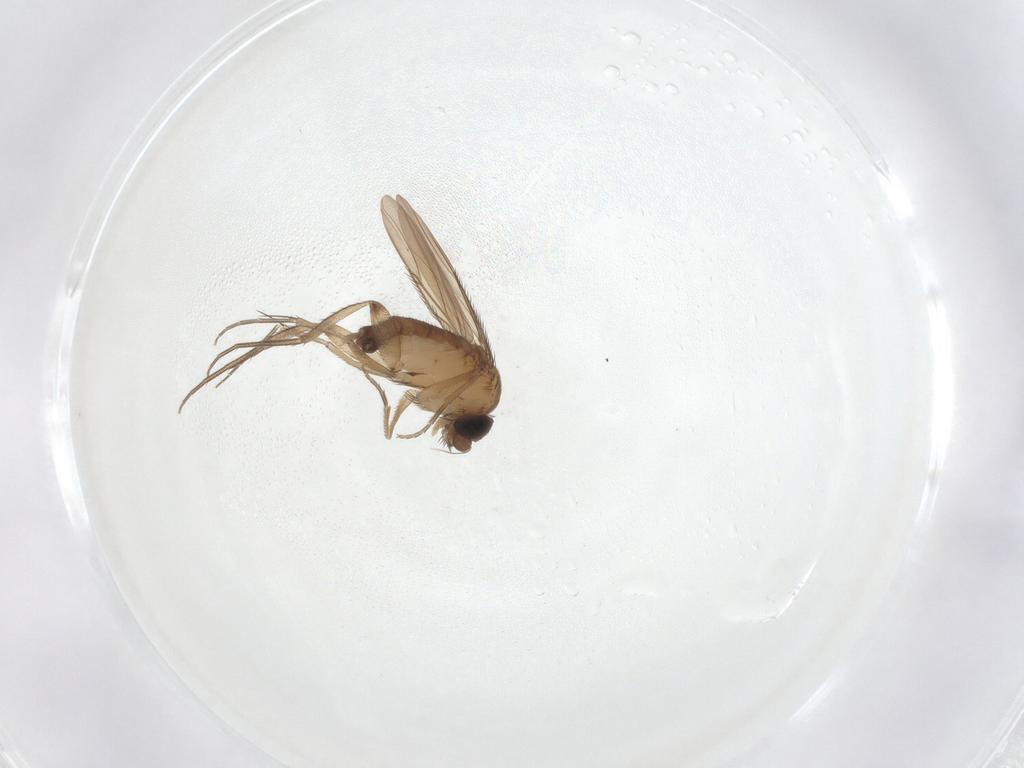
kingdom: Animalia
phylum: Arthropoda
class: Insecta
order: Diptera
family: Phoridae
